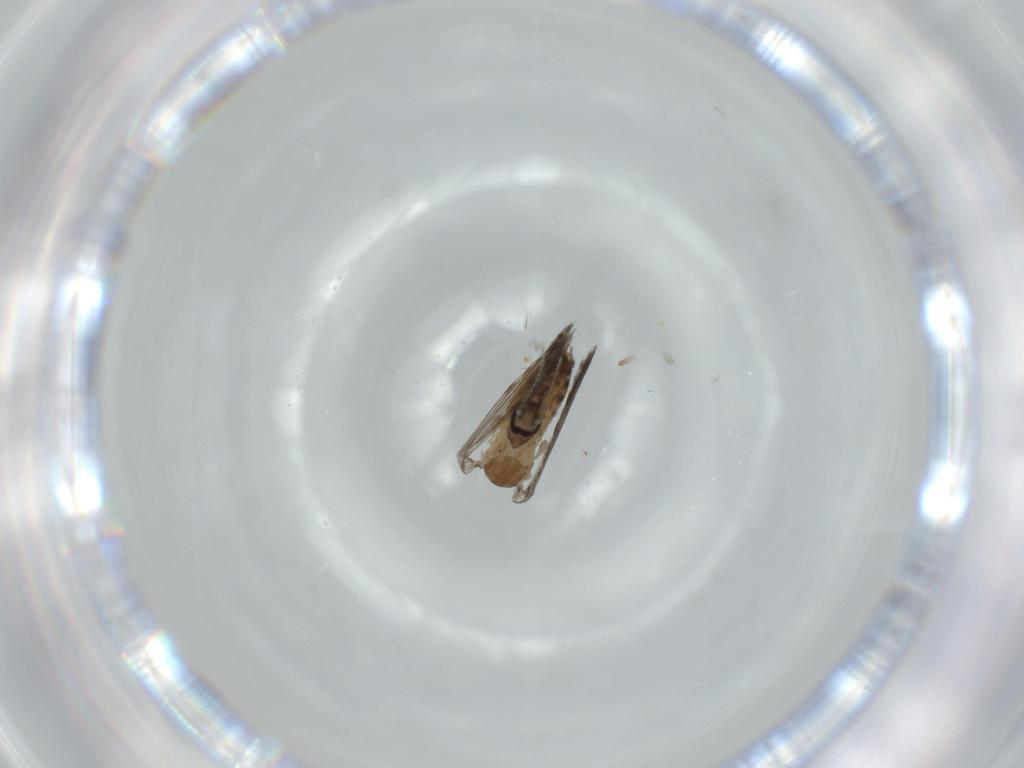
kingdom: Animalia
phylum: Arthropoda
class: Insecta
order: Diptera
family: Psychodidae
